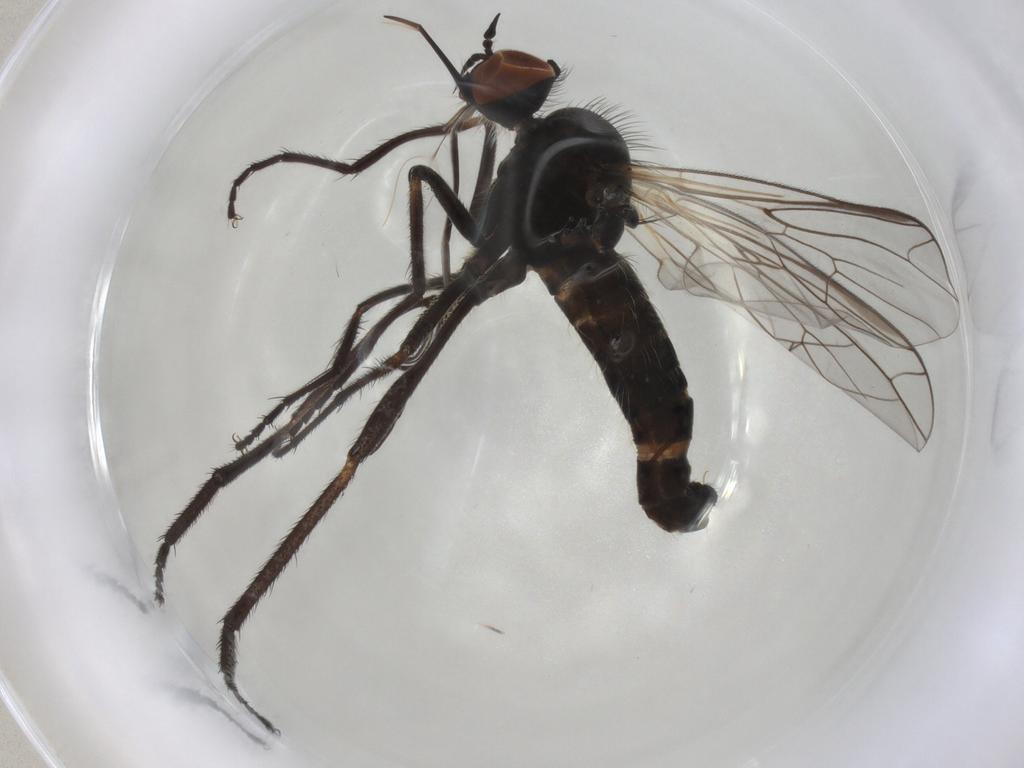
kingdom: Animalia
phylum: Arthropoda
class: Insecta
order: Diptera
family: Empididae
